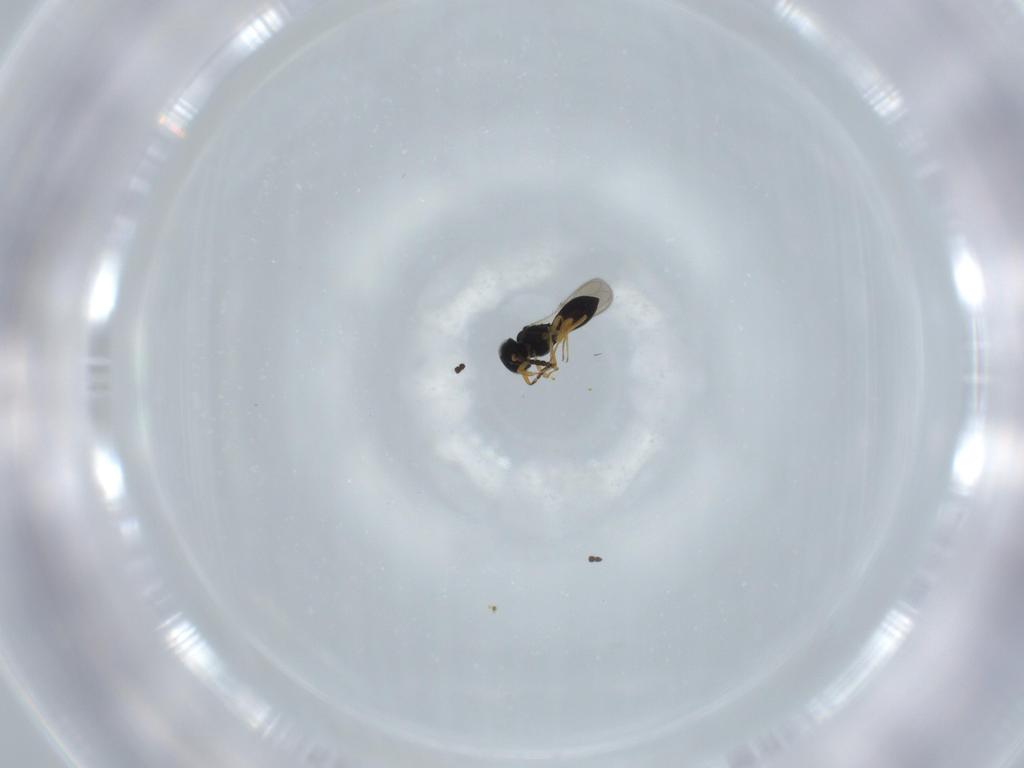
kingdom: Animalia
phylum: Arthropoda
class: Insecta
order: Hymenoptera
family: Scelionidae
